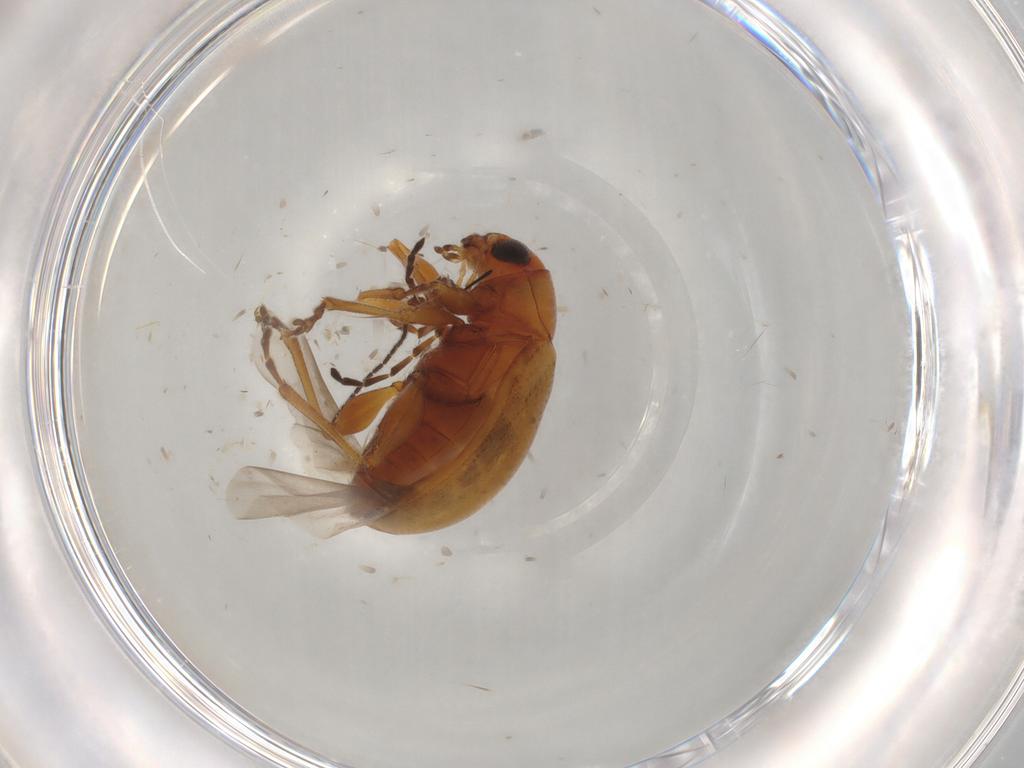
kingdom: Animalia
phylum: Arthropoda
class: Insecta
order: Coleoptera
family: Chrysomelidae
